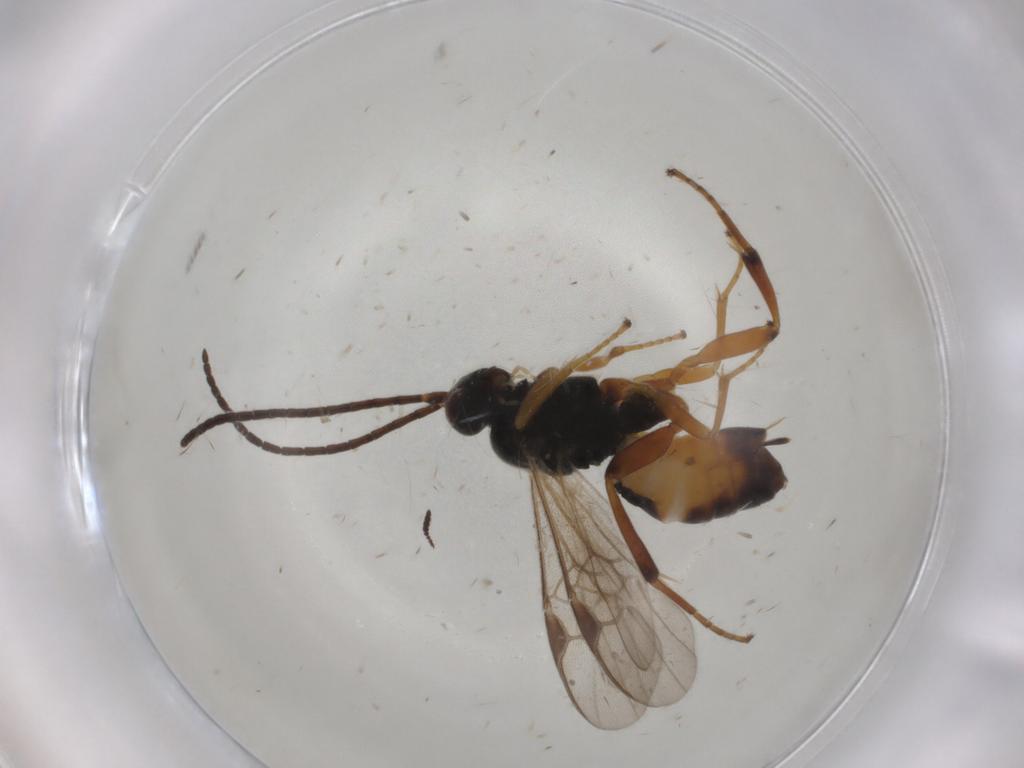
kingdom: Animalia
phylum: Arthropoda
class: Insecta
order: Hymenoptera
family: Braconidae
